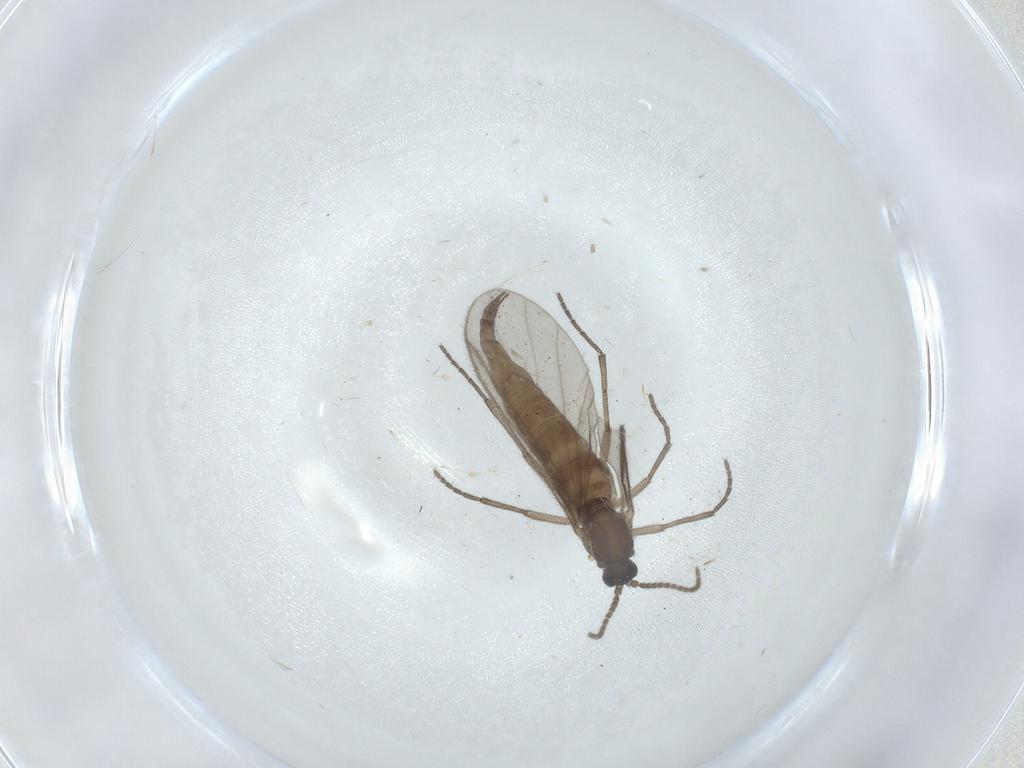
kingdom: Animalia
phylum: Arthropoda
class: Insecta
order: Diptera
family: Sciaridae
